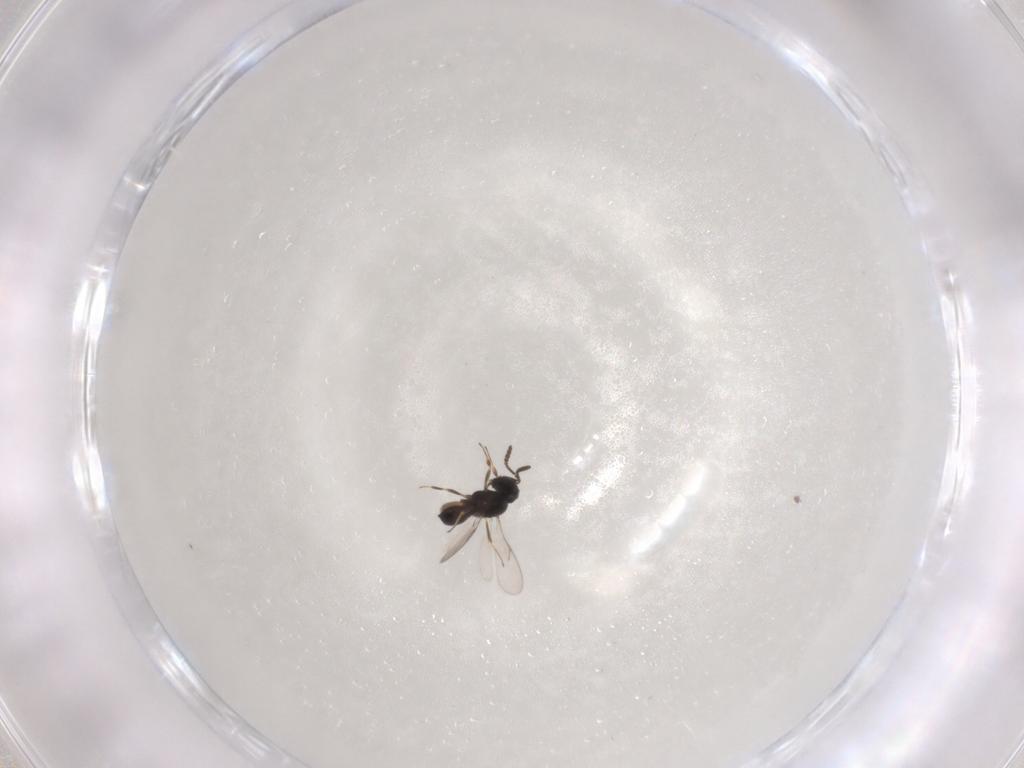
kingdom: Animalia
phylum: Arthropoda
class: Insecta
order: Hymenoptera
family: Scelionidae
